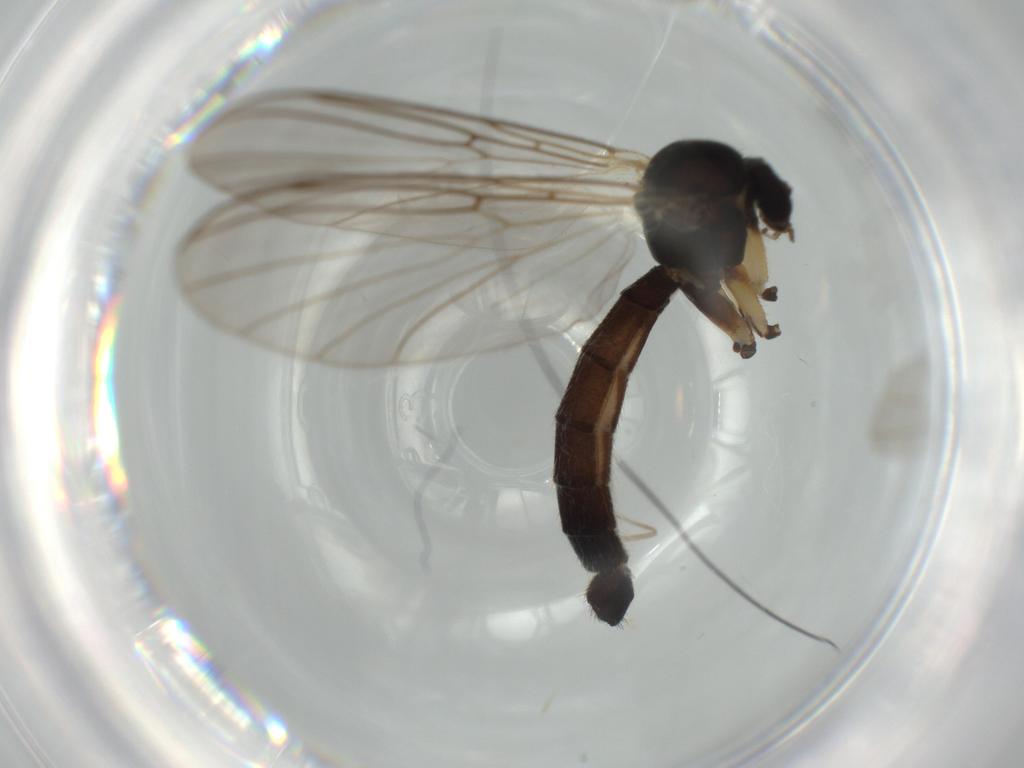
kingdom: Animalia
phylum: Arthropoda
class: Insecta
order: Diptera
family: Muscidae
